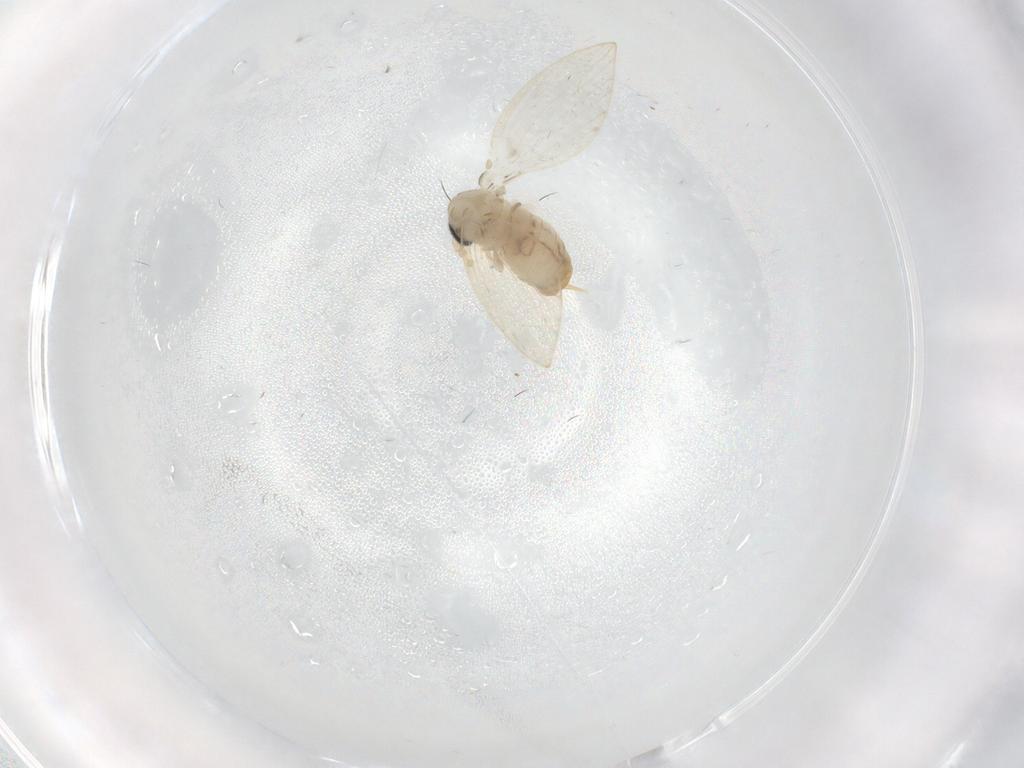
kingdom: Animalia
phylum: Arthropoda
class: Insecta
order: Diptera
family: Psychodidae
